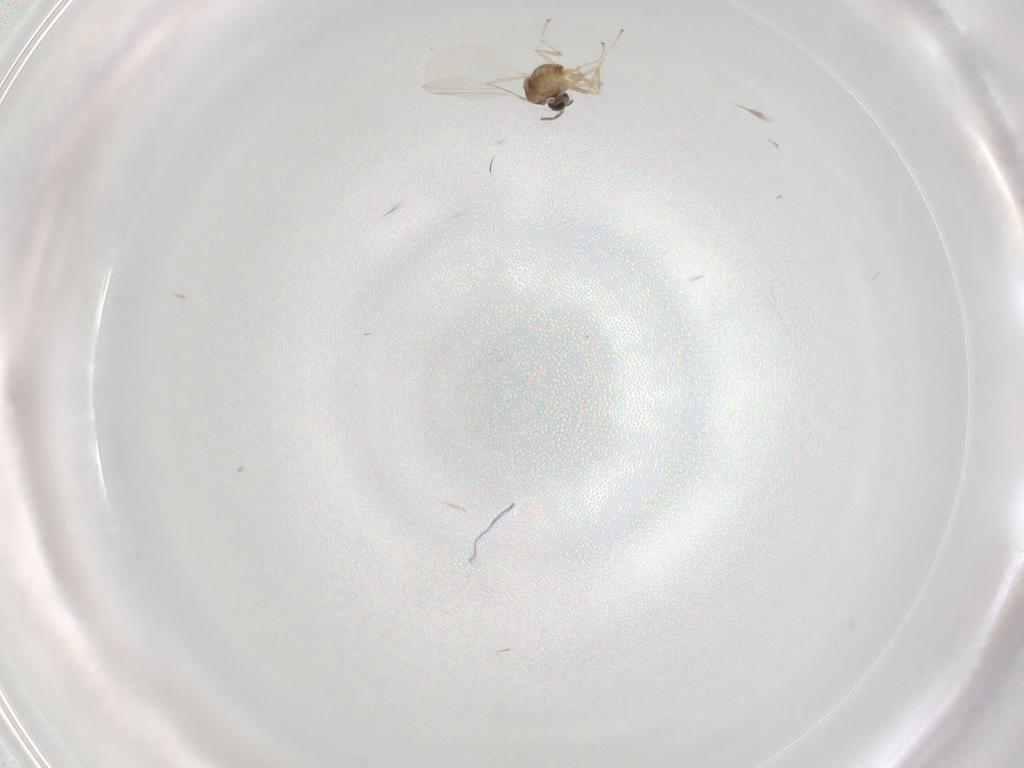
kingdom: Animalia
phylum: Arthropoda
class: Insecta
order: Diptera
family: Cecidomyiidae
